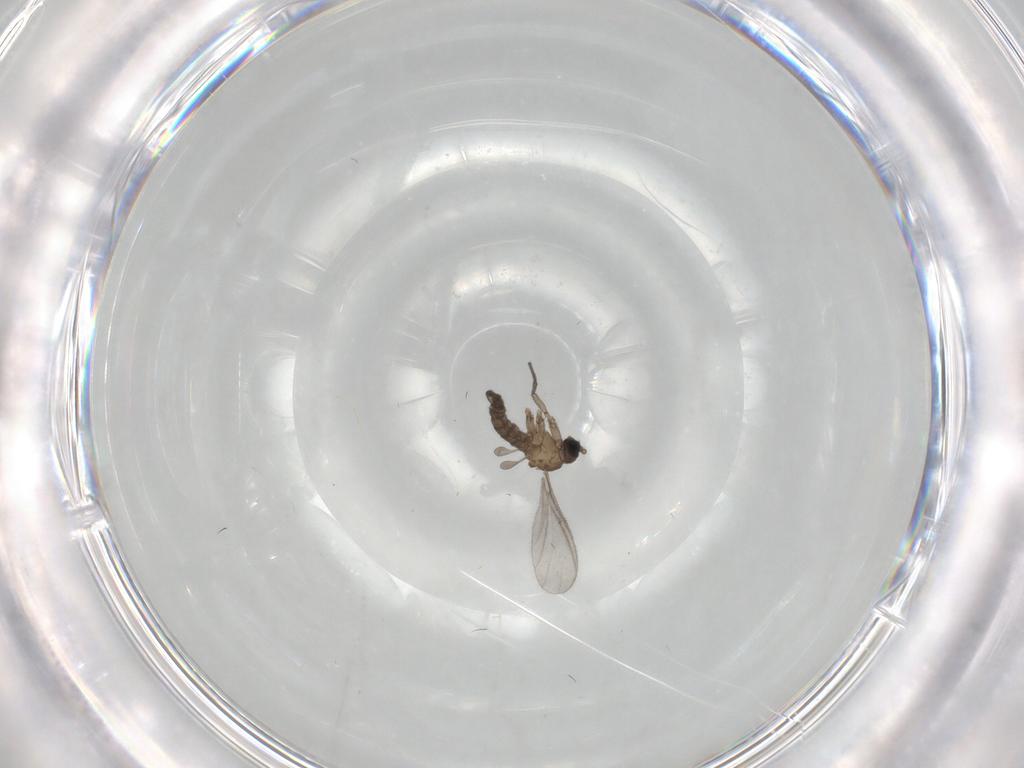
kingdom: Animalia
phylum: Arthropoda
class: Insecta
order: Diptera
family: Sciaridae
